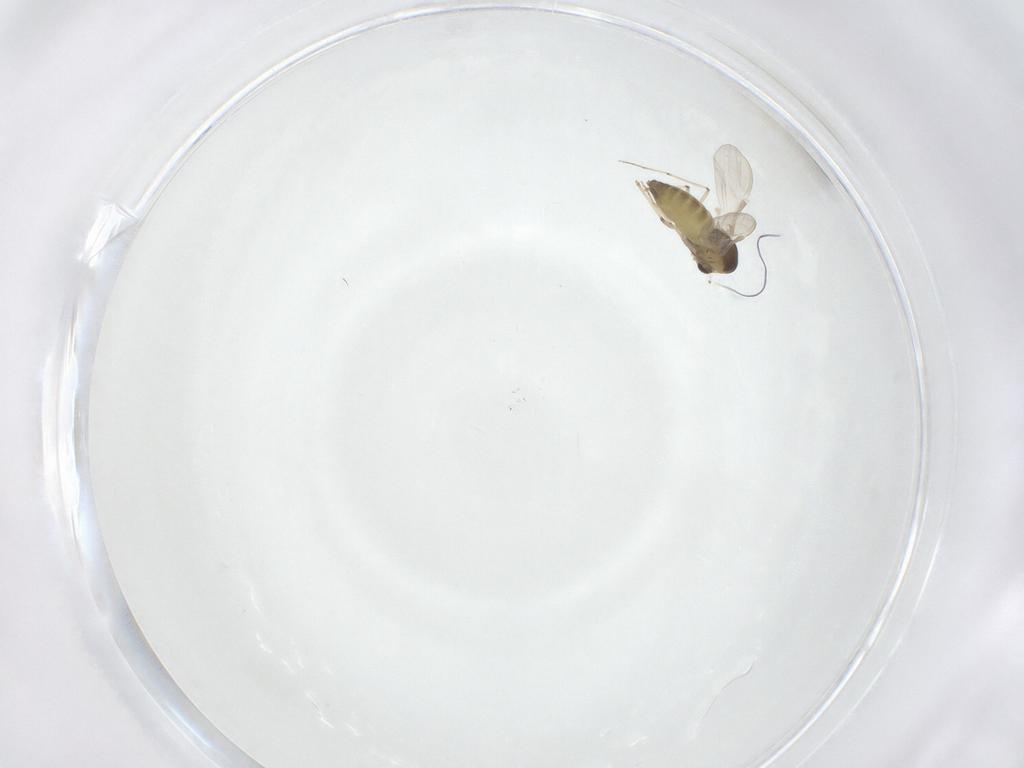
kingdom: Animalia
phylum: Arthropoda
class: Insecta
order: Diptera
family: Chironomidae
